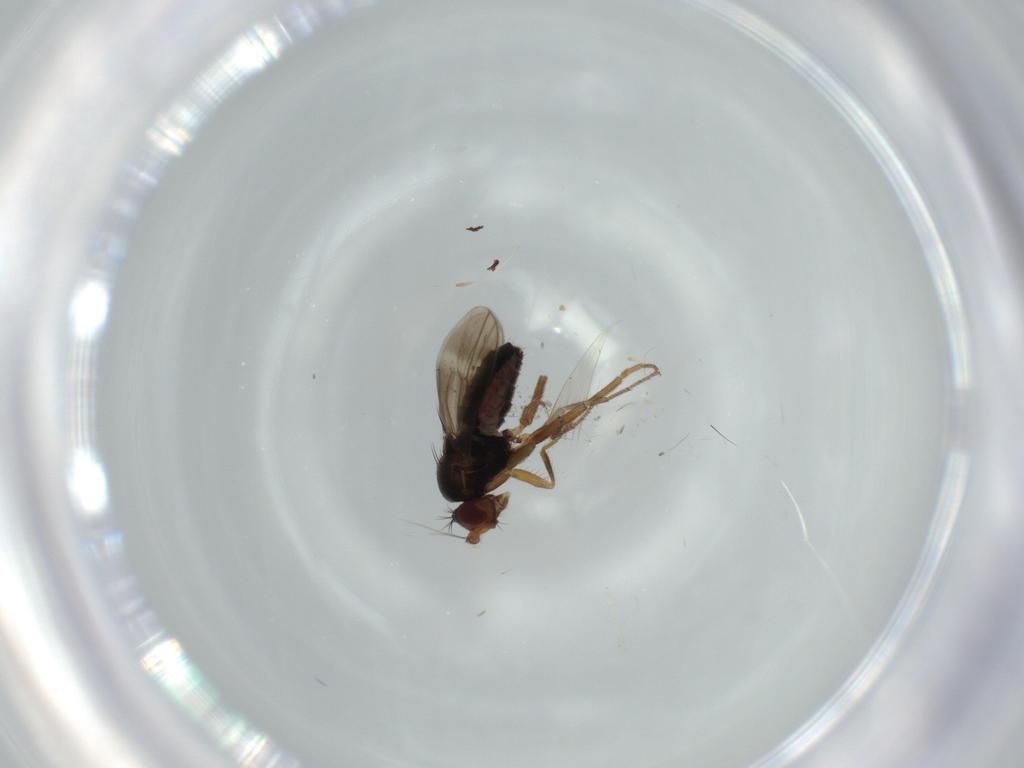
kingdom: Animalia
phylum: Arthropoda
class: Insecta
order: Diptera
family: Sphaeroceridae
